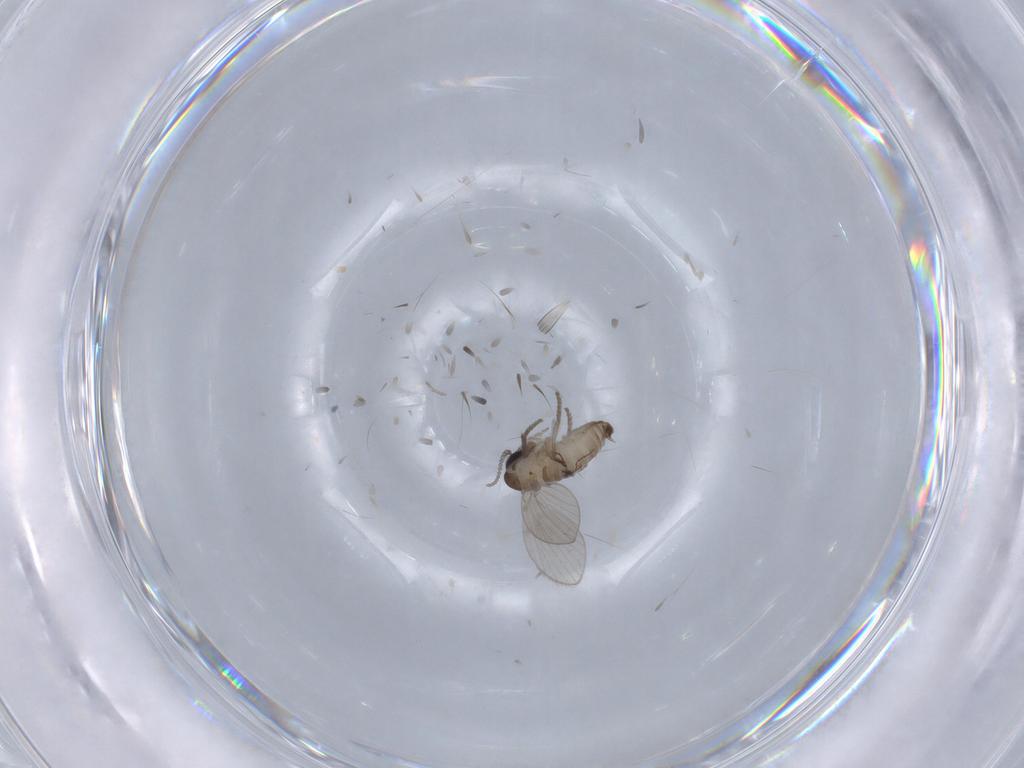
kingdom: Animalia
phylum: Arthropoda
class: Insecta
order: Diptera
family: Psychodidae
